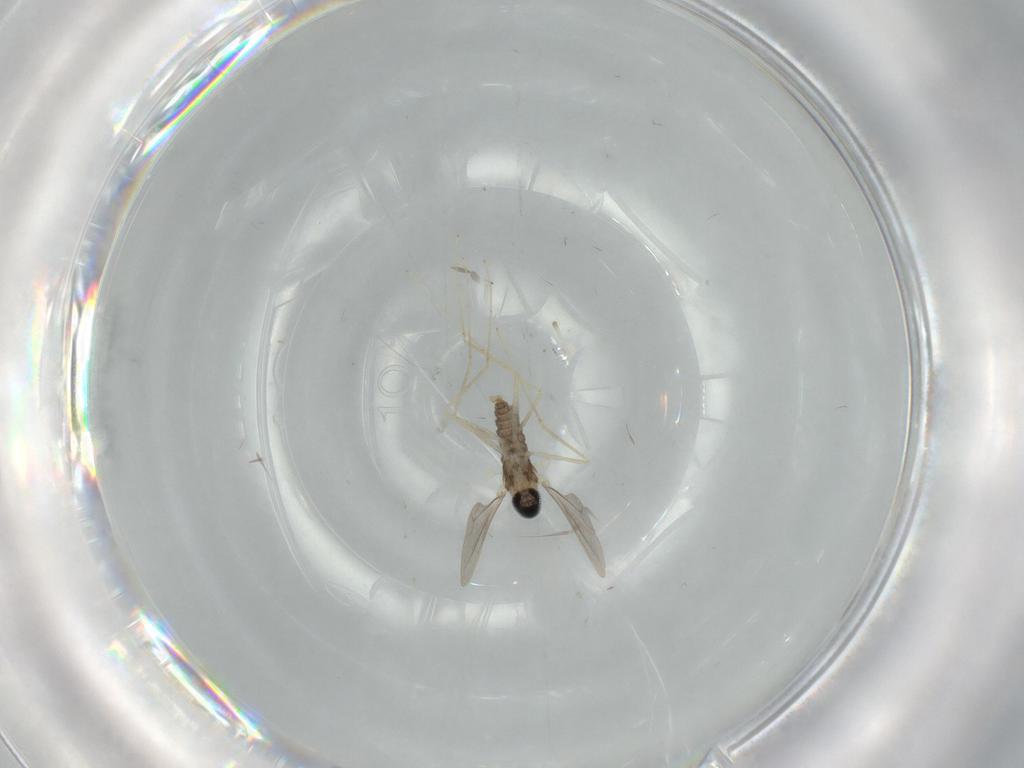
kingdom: Animalia
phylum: Arthropoda
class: Insecta
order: Diptera
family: Cecidomyiidae
